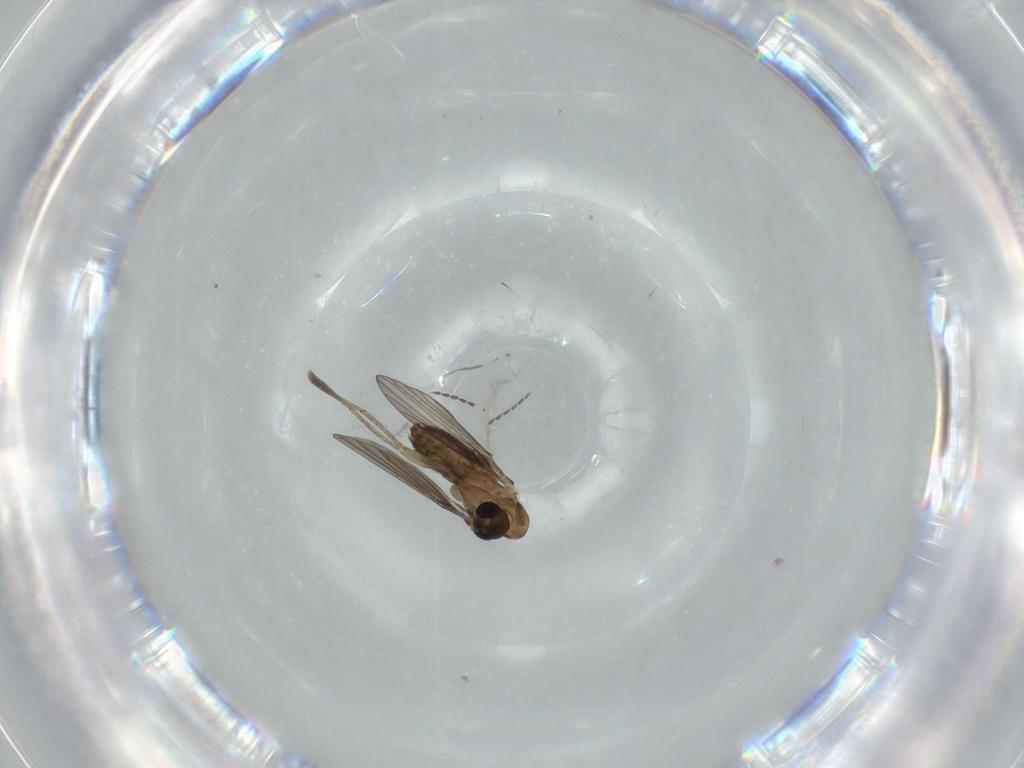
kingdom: Animalia
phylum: Arthropoda
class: Insecta
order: Diptera
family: Psychodidae
